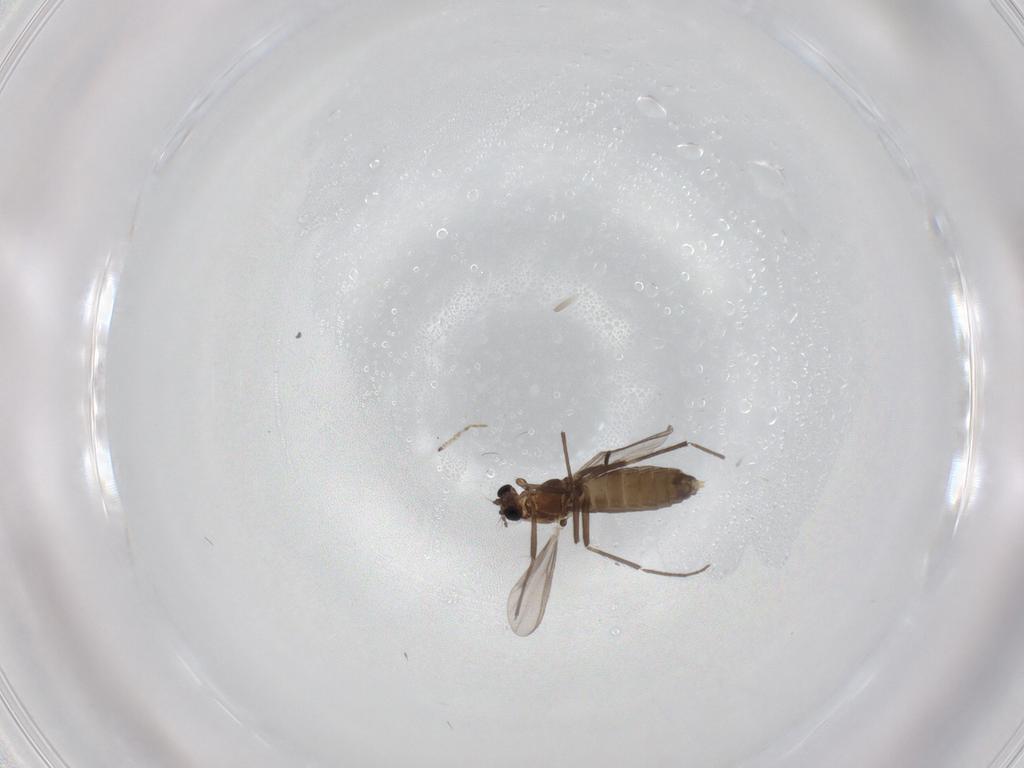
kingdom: Animalia
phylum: Arthropoda
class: Insecta
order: Diptera
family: Chironomidae
